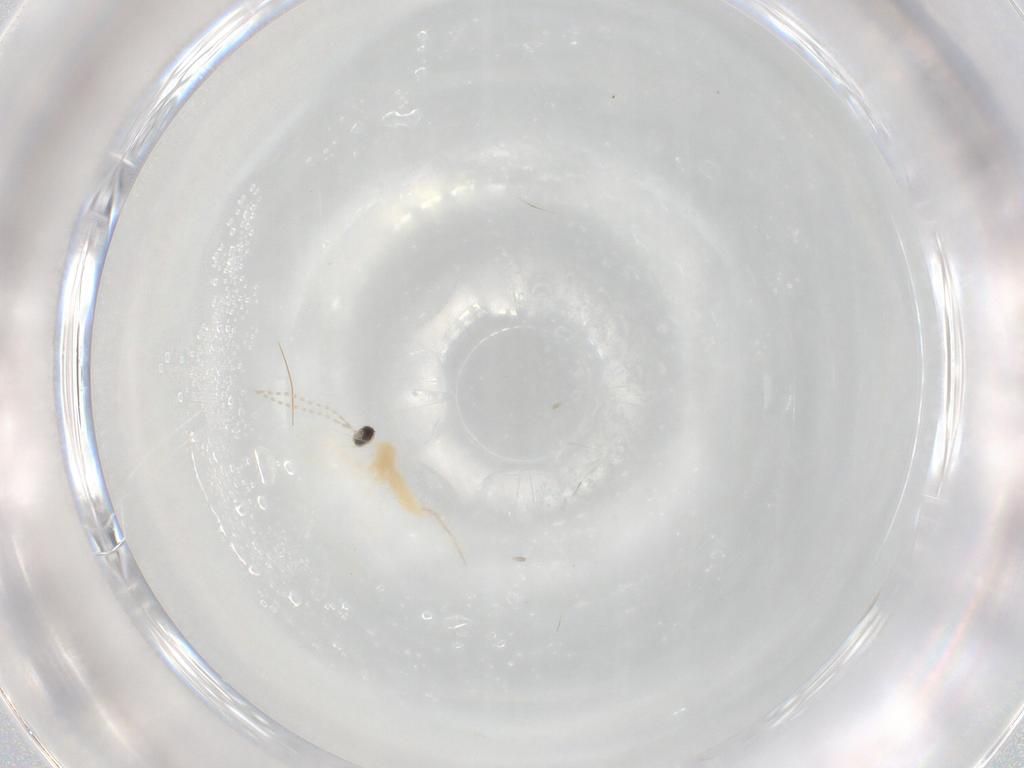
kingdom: Animalia
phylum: Arthropoda
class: Insecta
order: Diptera
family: Cecidomyiidae
